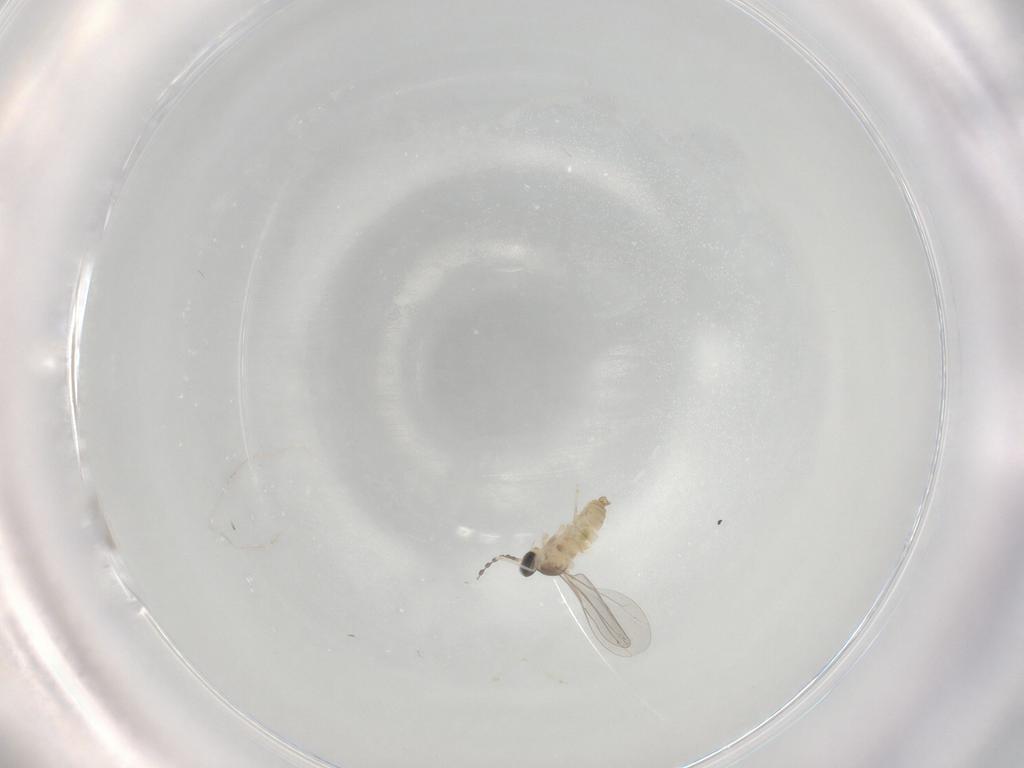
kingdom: Animalia
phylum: Arthropoda
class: Insecta
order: Diptera
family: Cecidomyiidae
